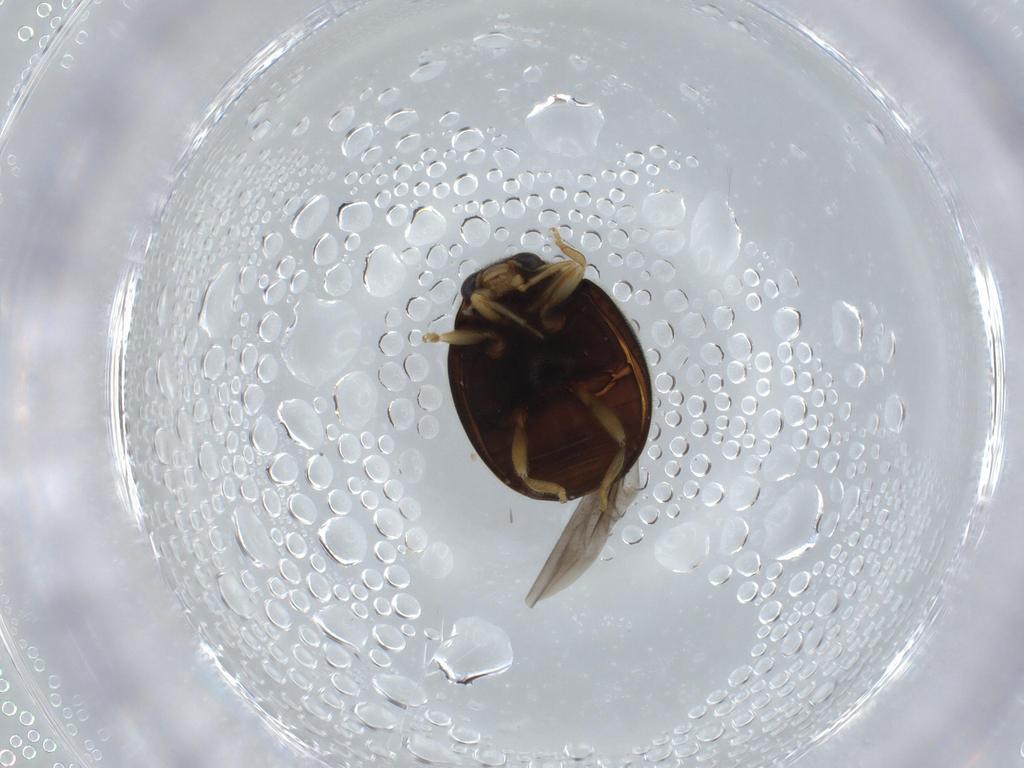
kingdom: Animalia
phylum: Arthropoda
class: Insecta
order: Coleoptera
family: Coccinellidae
